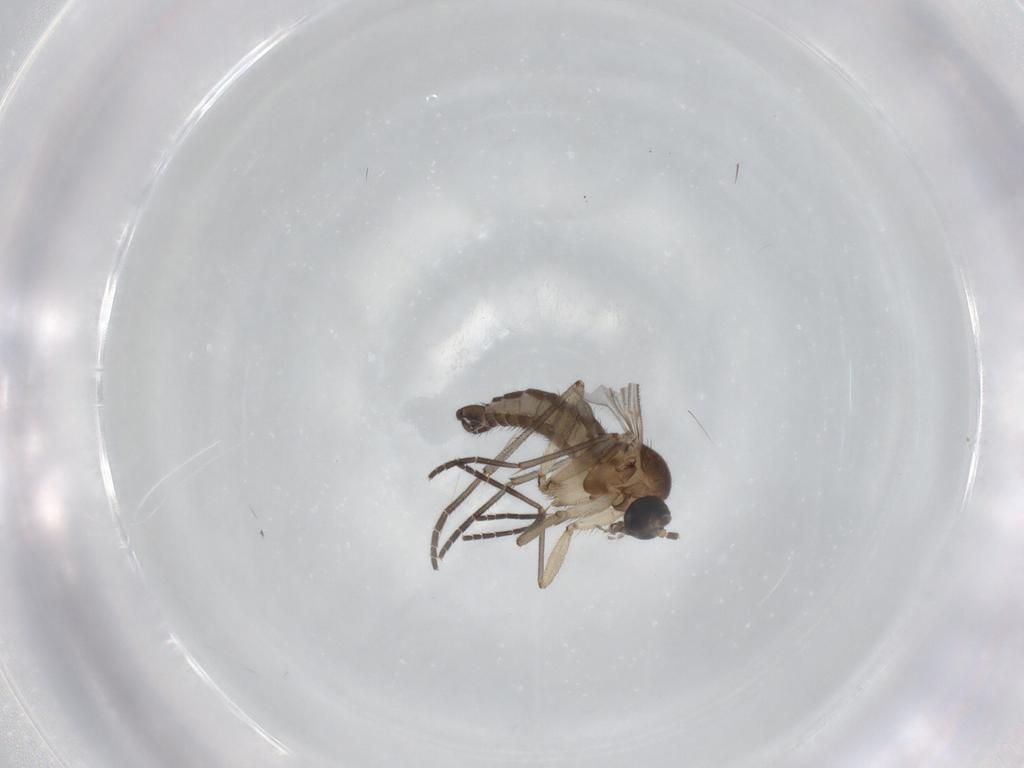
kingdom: Animalia
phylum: Arthropoda
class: Insecta
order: Diptera
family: Sciaridae
